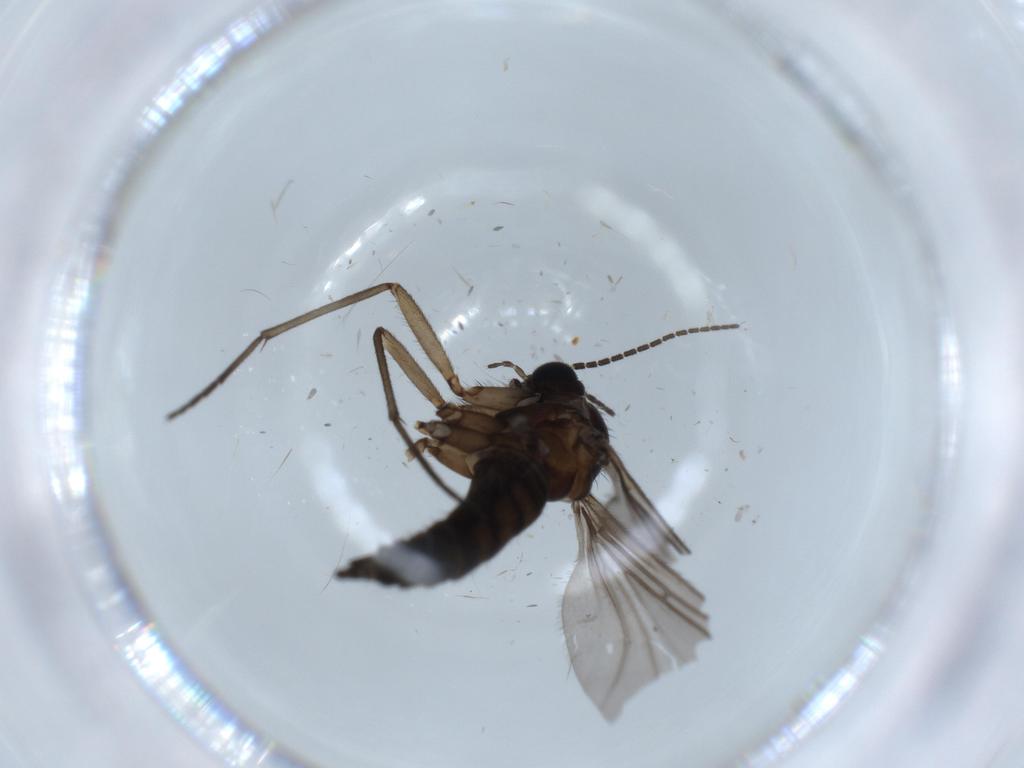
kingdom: Animalia
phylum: Arthropoda
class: Insecta
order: Diptera
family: Sciaridae
